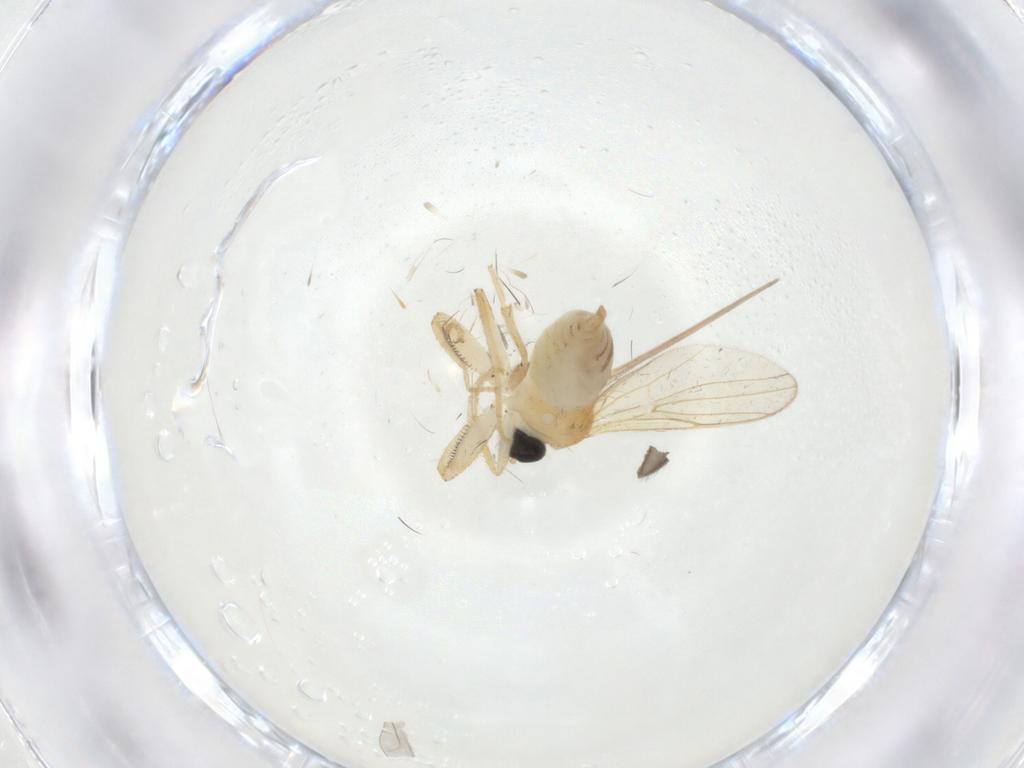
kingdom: Animalia
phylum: Arthropoda
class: Insecta
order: Diptera
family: Sciaridae
